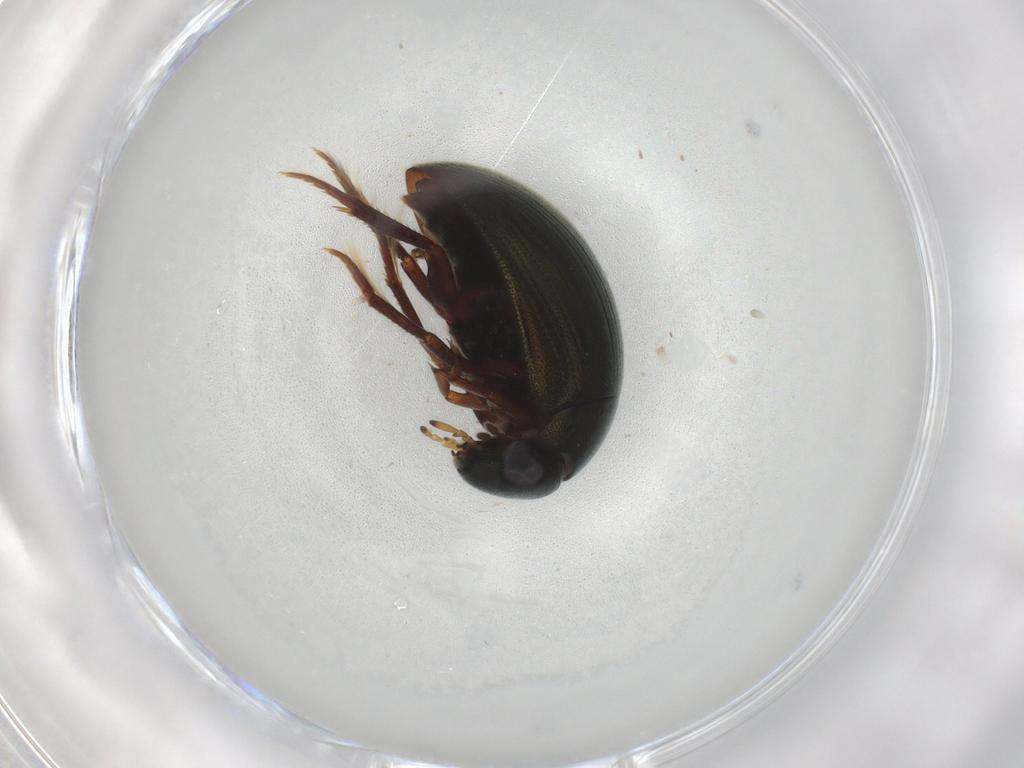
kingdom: Animalia
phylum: Arthropoda
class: Insecta
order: Coleoptera
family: Hydrophilidae
